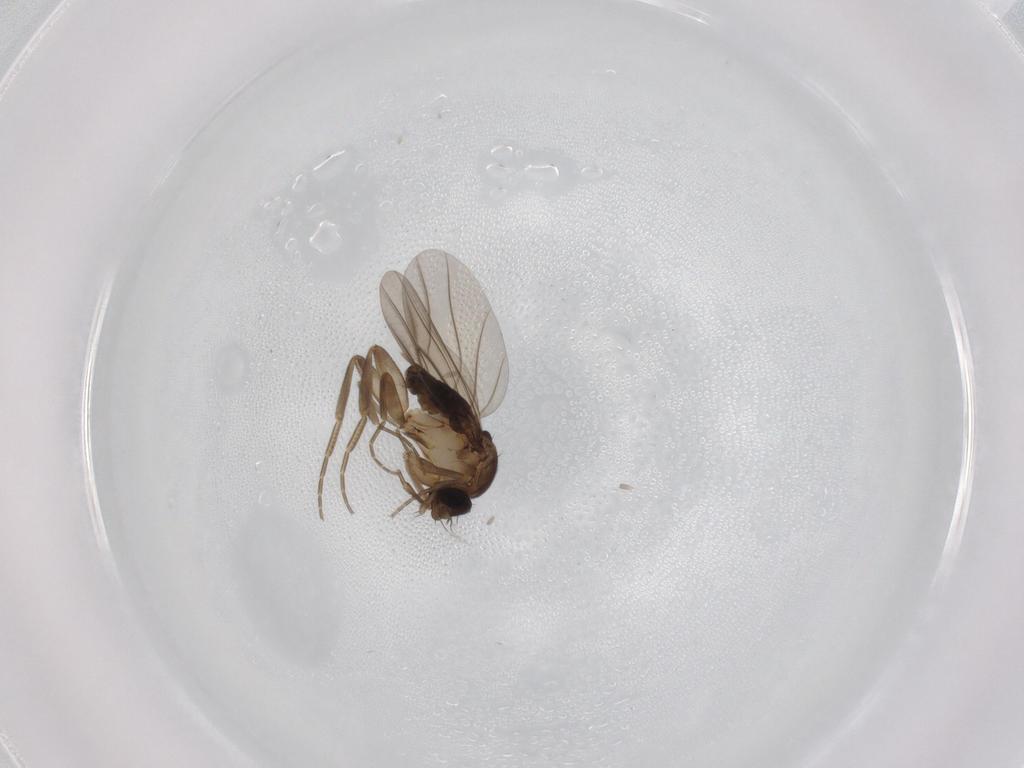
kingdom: Animalia
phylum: Arthropoda
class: Insecta
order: Diptera
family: Phoridae
